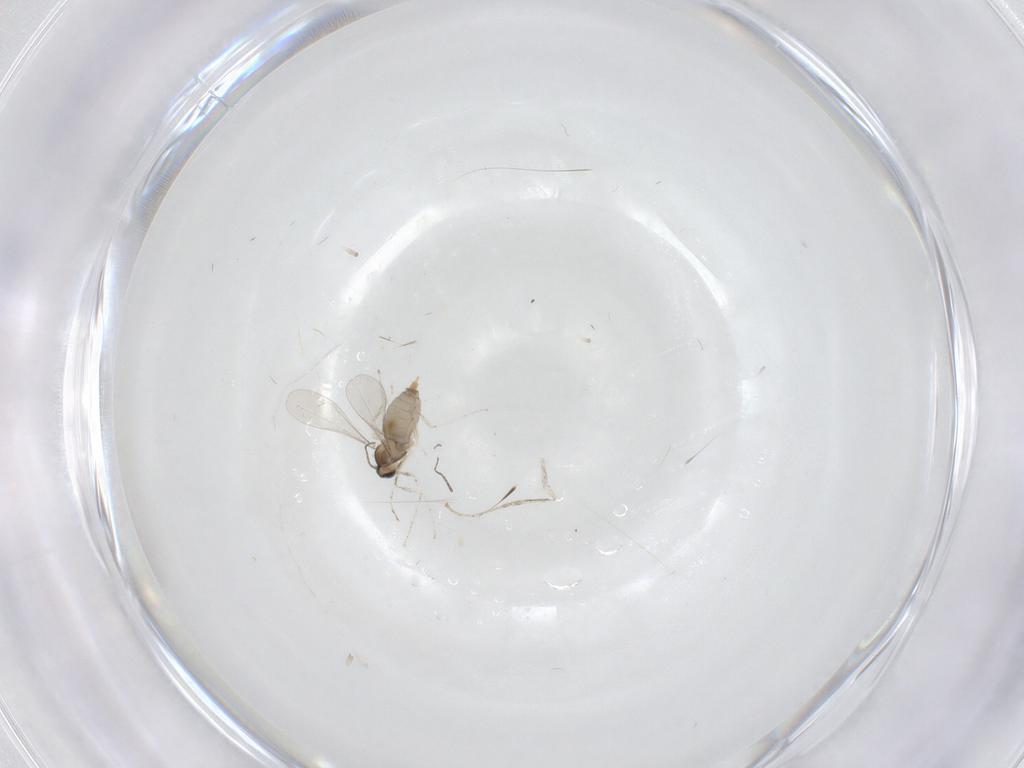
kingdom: Animalia
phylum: Arthropoda
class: Insecta
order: Diptera
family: Cecidomyiidae
